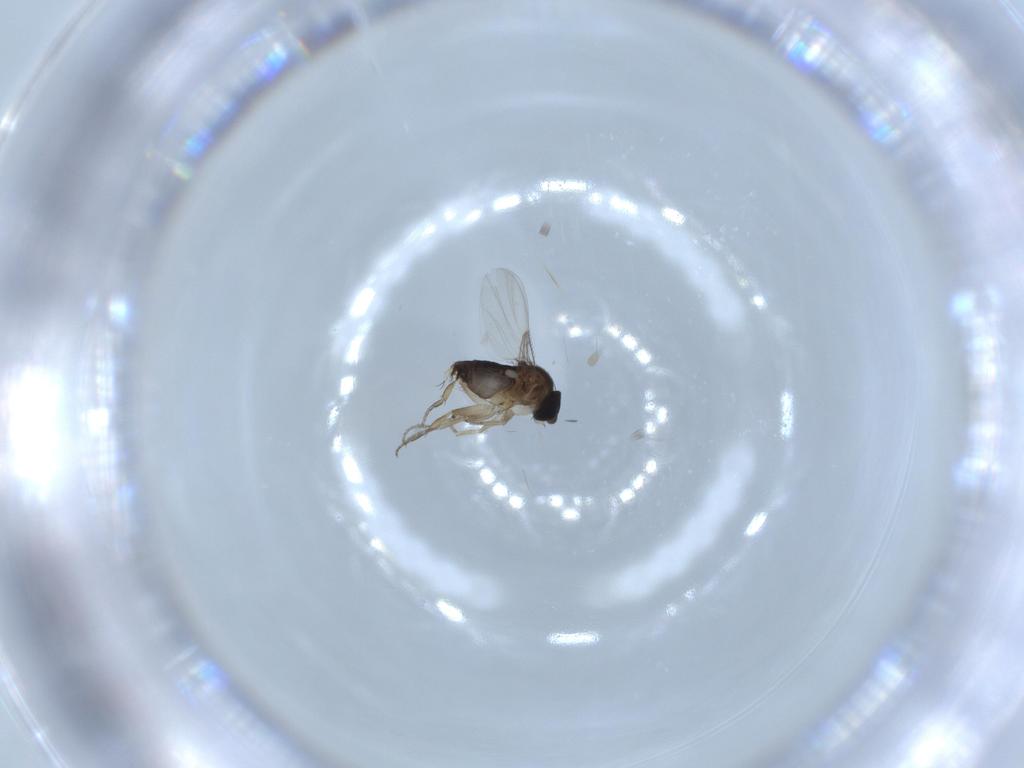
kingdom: Animalia
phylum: Arthropoda
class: Insecta
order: Diptera
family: Phoridae
